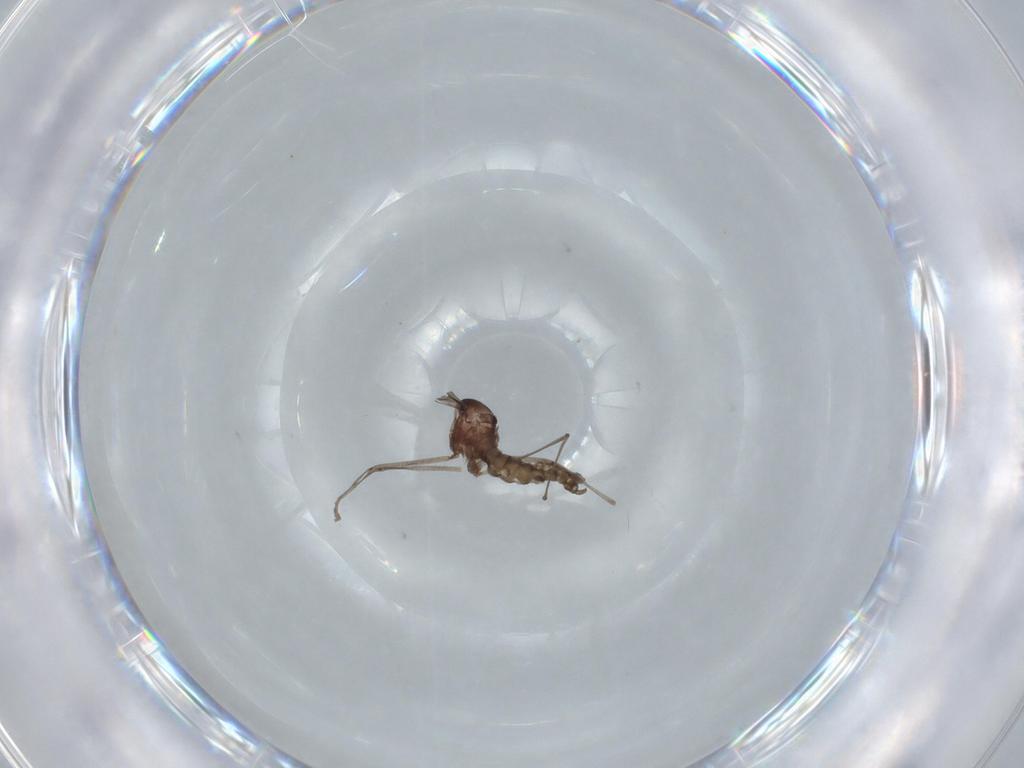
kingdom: Animalia
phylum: Arthropoda
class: Insecta
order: Diptera
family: Cecidomyiidae
